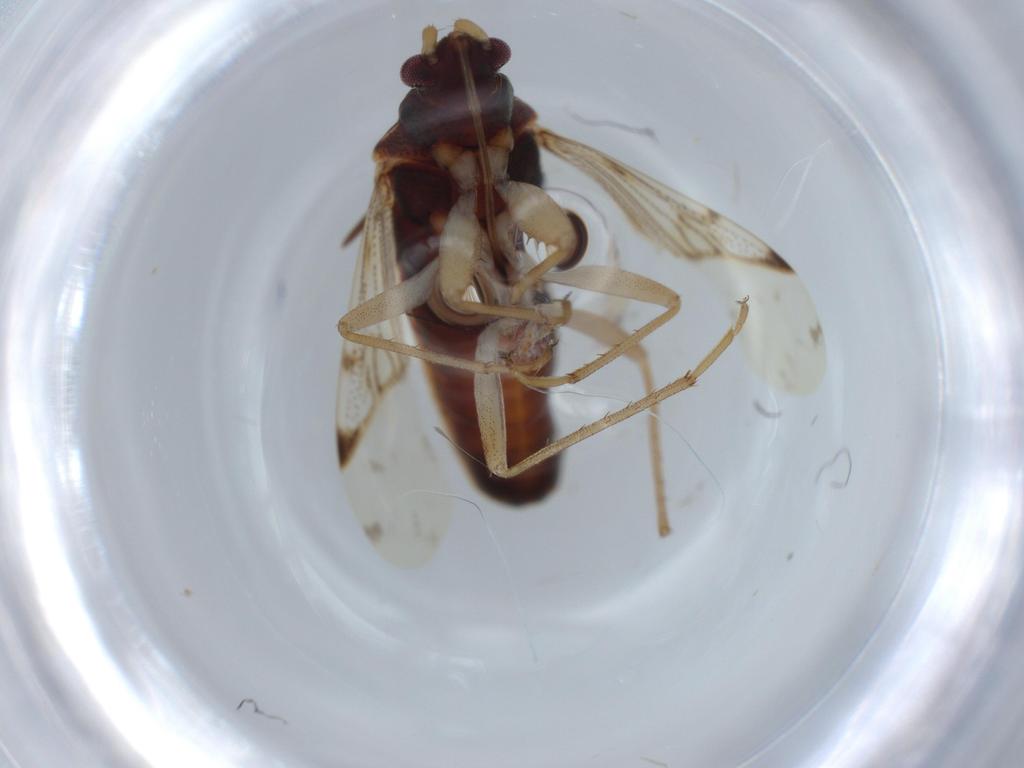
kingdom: Animalia
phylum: Arthropoda
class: Insecta
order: Hemiptera
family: Rhyparochromidae
